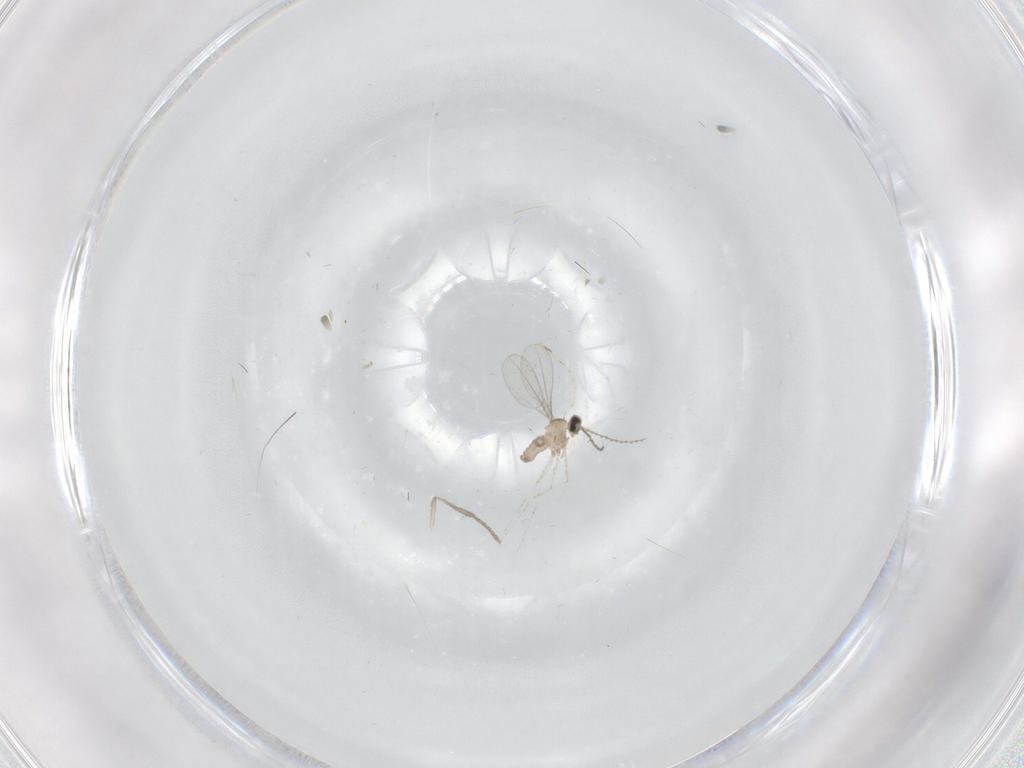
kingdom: Animalia
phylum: Arthropoda
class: Insecta
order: Diptera
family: Cecidomyiidae
